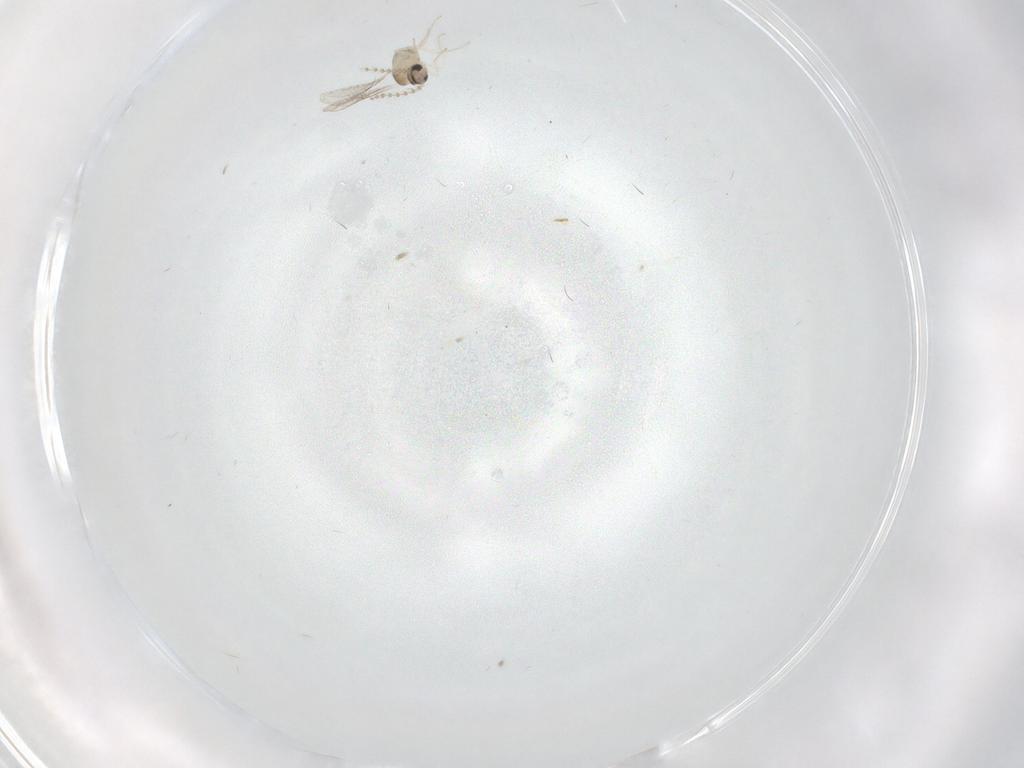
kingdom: Animalia
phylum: Arthropoda
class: Insecta
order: Diptera
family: Cecidomyiidae
